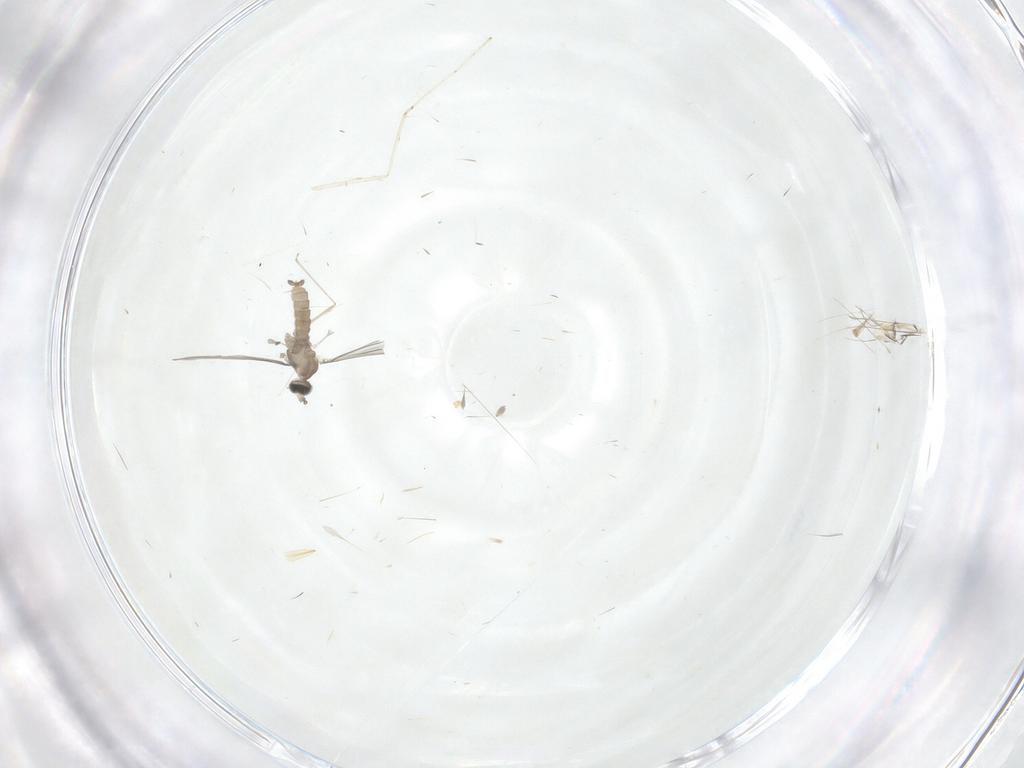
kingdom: Animalia
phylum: Arthropoda
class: Insecta
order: Diptera
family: Cecidomyiidae
